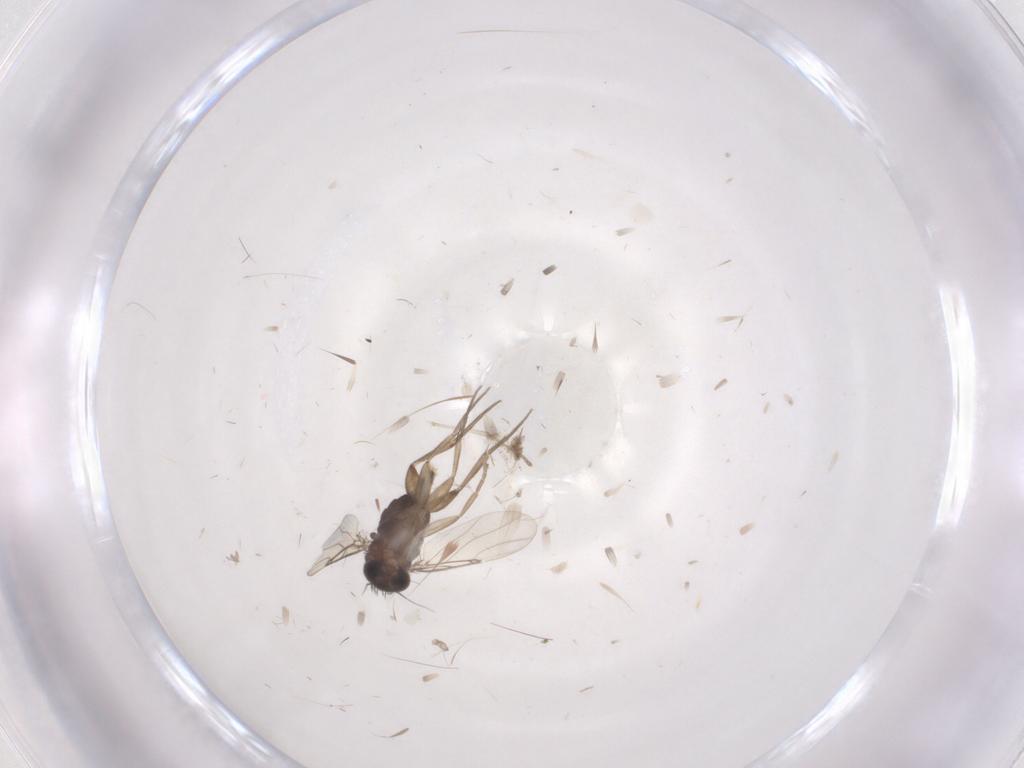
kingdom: Animalia
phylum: Arthropoda
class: Insecta
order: Diptera
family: Phoridae
